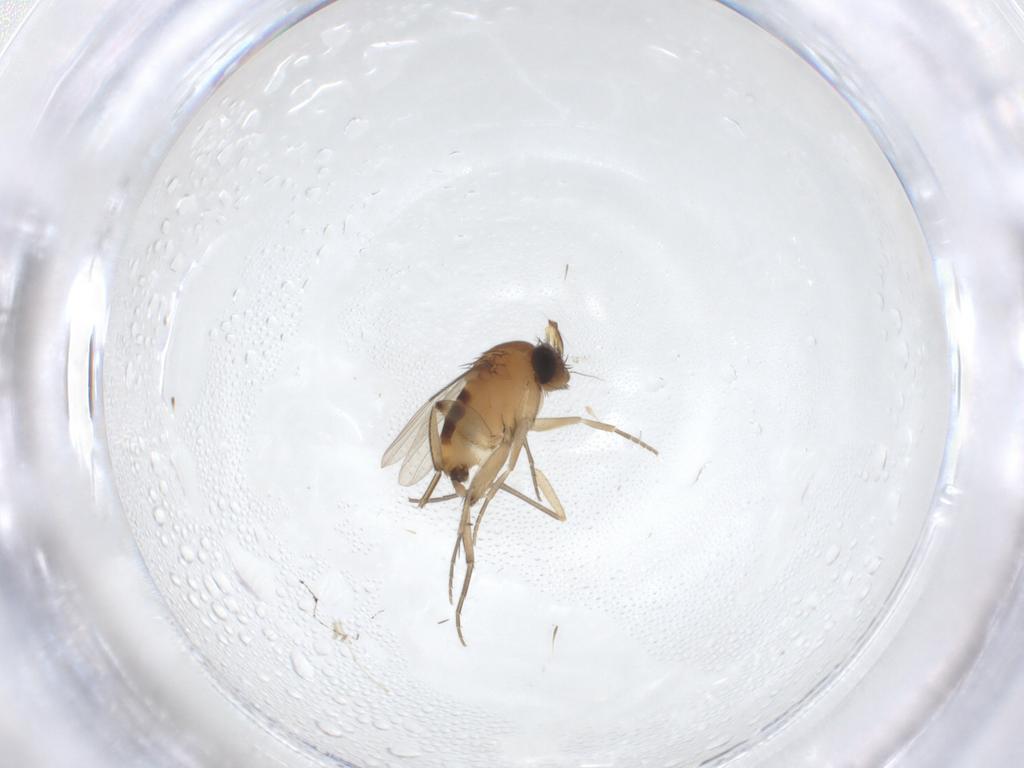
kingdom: Animalia
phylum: Arthropoda
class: Insecta
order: Diptera
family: Phoridae
